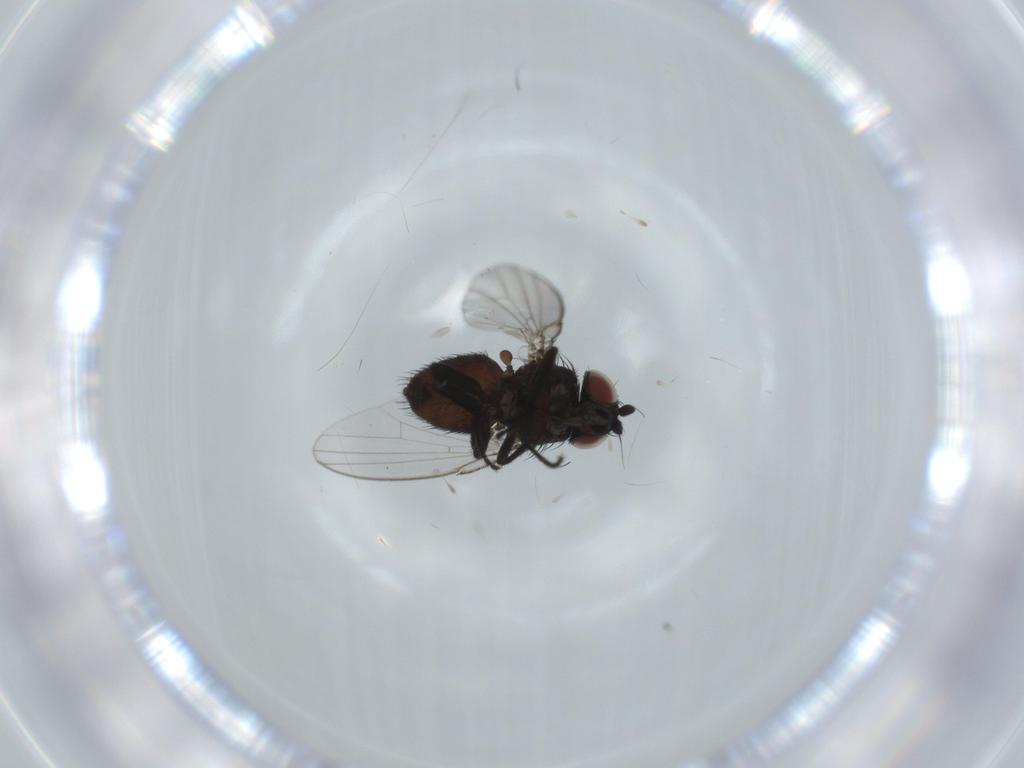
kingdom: Animalia
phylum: Arthropoda
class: Insecta
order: Diptera
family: Milichiidae
